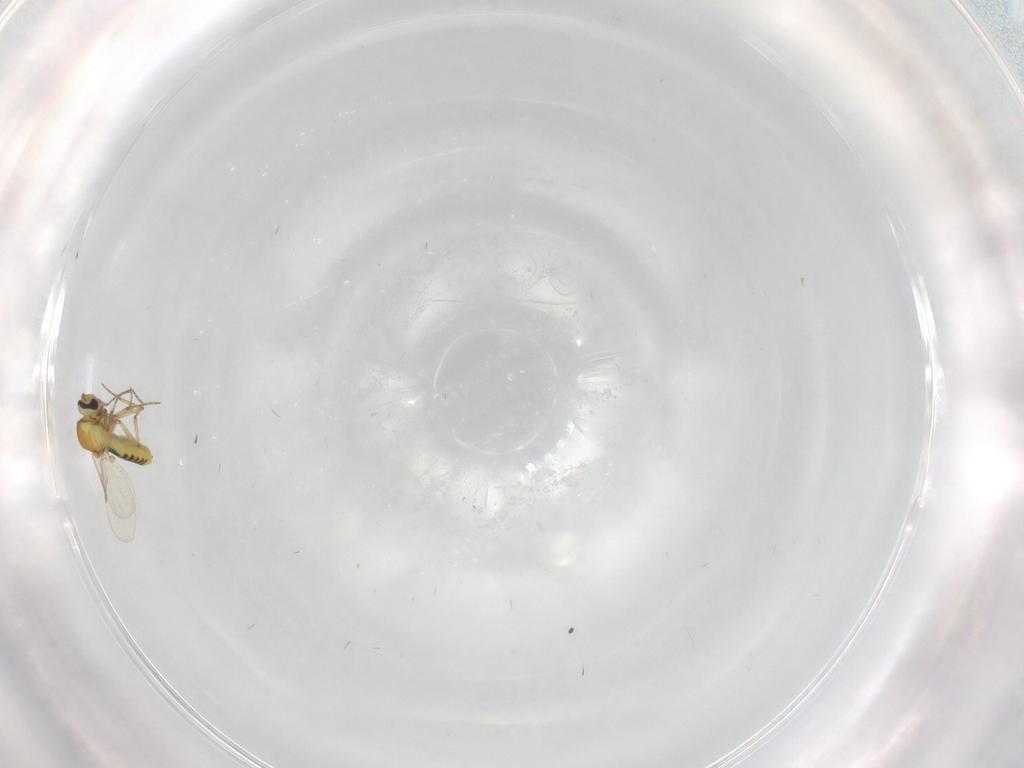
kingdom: Animalia
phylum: Arthropoda
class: Insecta
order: Diptera
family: Ceratopogonidae
